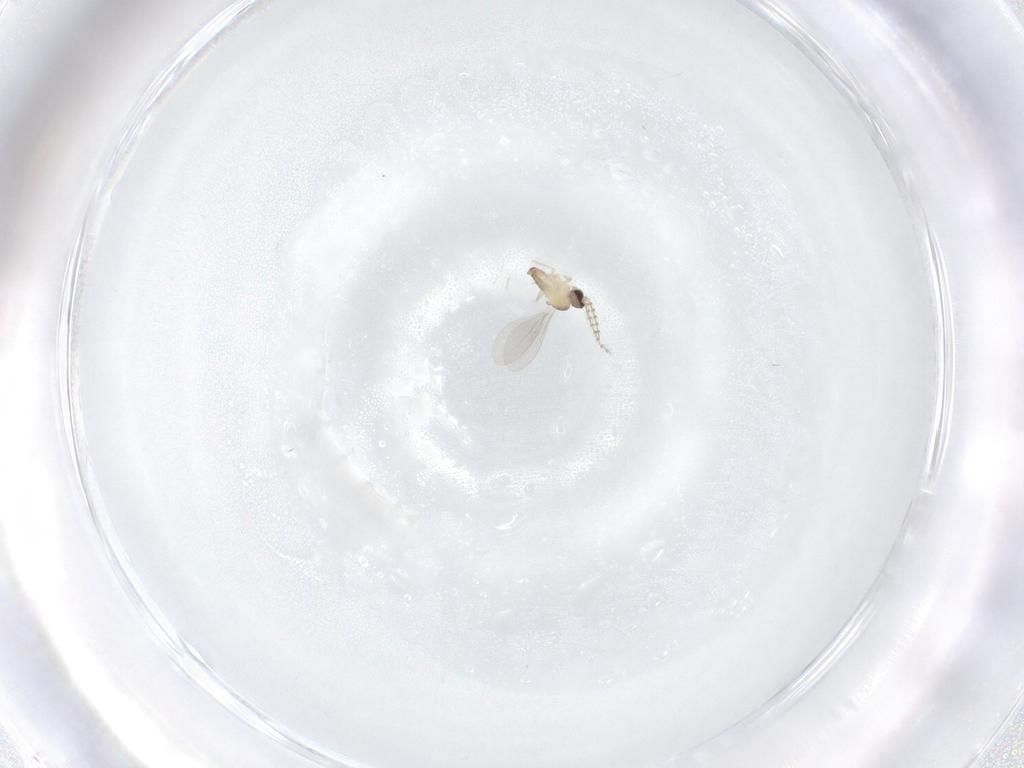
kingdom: Animalia
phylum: Arthropoda
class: Insecta
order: Diptera
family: Cecidomyiidae
